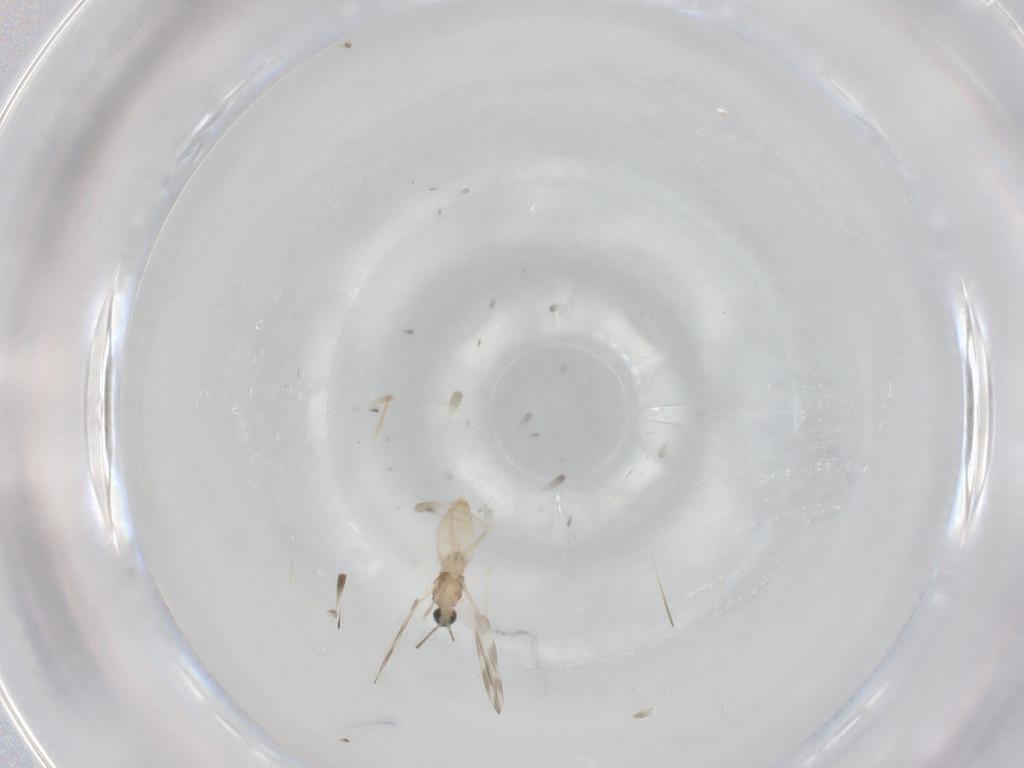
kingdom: Animalia
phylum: Arthropoda
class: Insecta
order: Diptera
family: Cecidomyiidae
